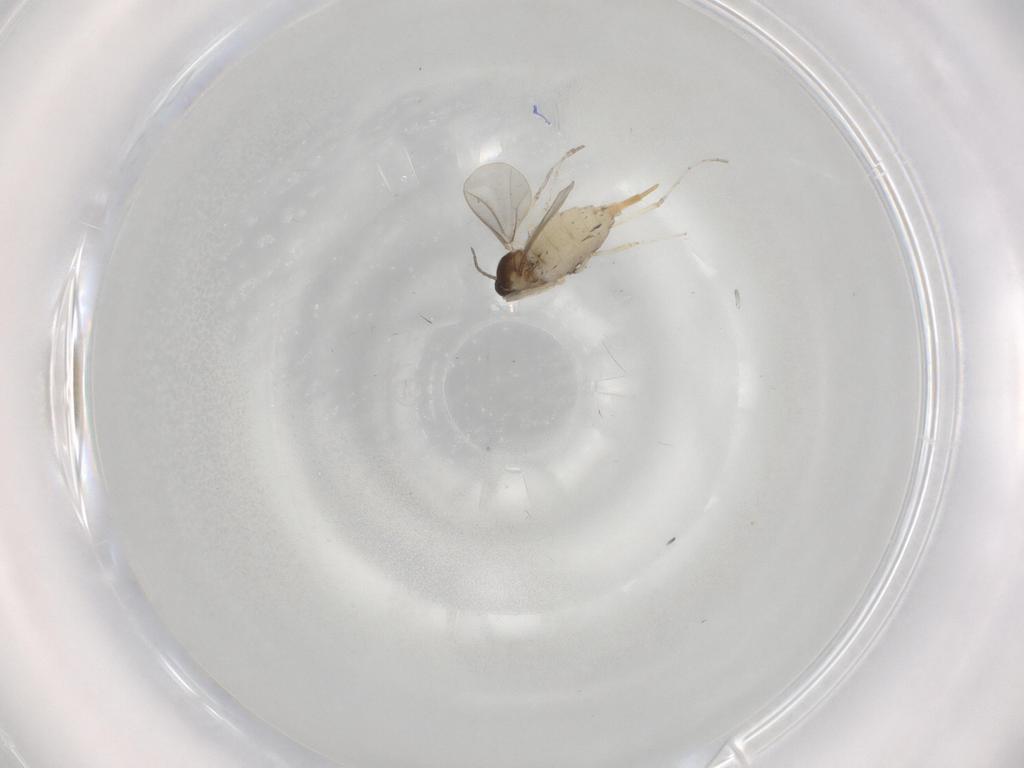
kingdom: Animalia
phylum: Arthropoda
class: Insecta
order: Diptera
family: Cecidomyiidae
